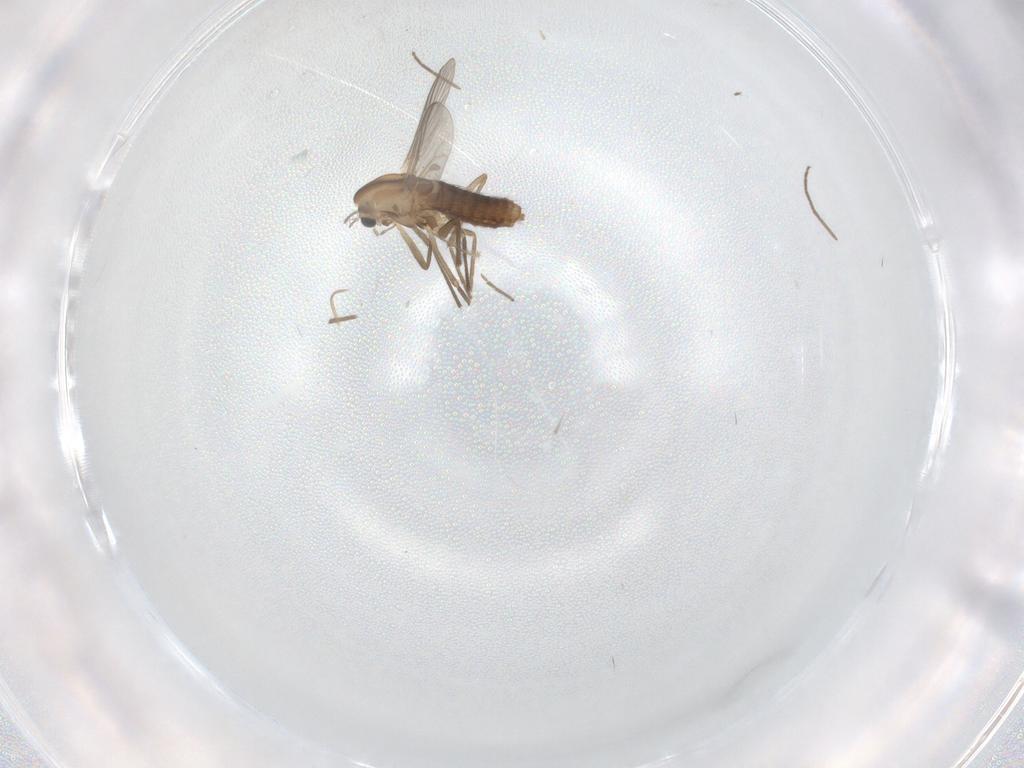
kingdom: Animalia
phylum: Arthropoda
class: Insecta
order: Diptera
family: Chironomidae
